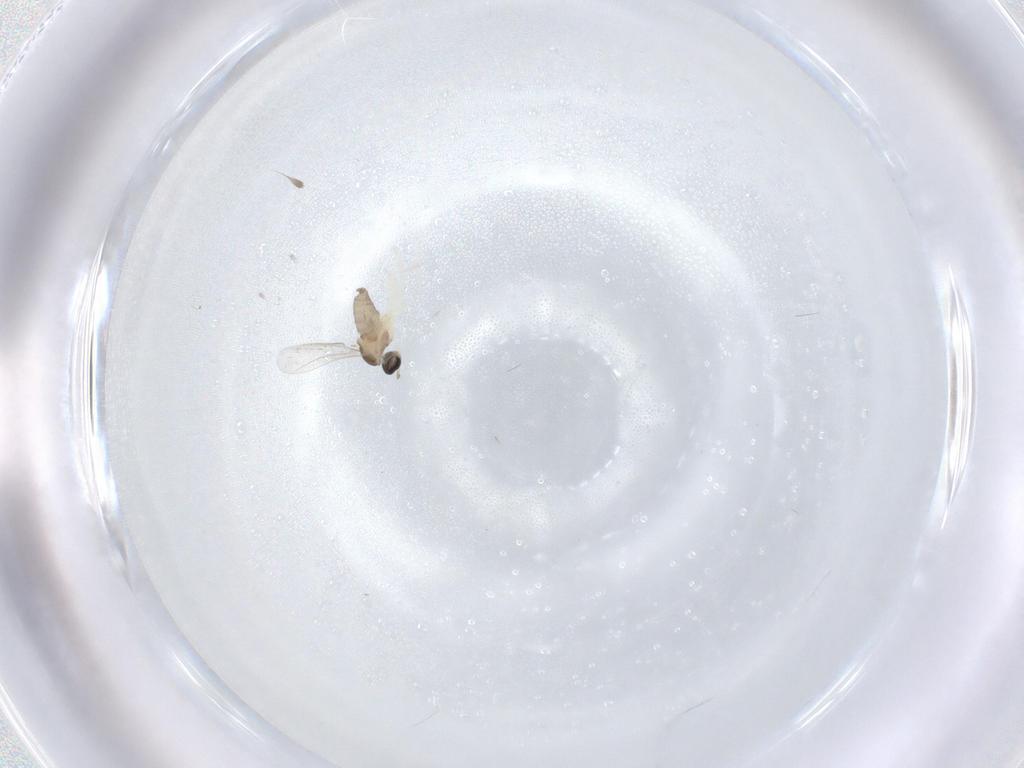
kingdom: Animalia
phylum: Arthropoda
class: Insecta
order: Diptera
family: Cecidomyiidae
